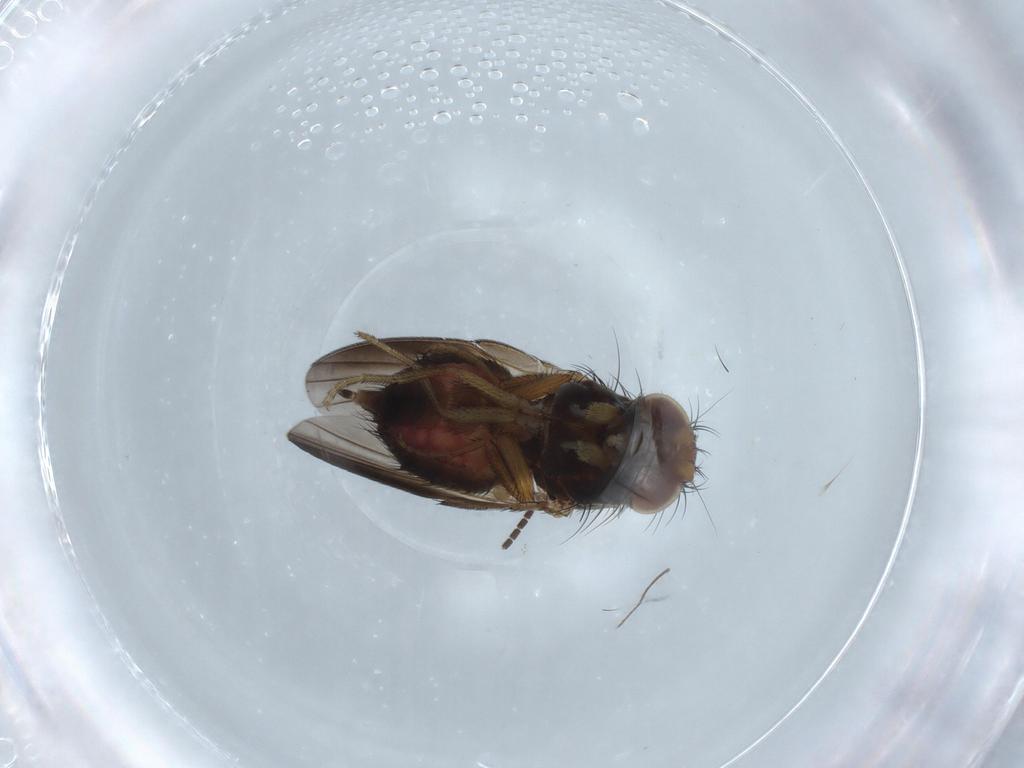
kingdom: Animalia
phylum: Arthropoda
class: Insecta
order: Diptera
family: Milichiidae
